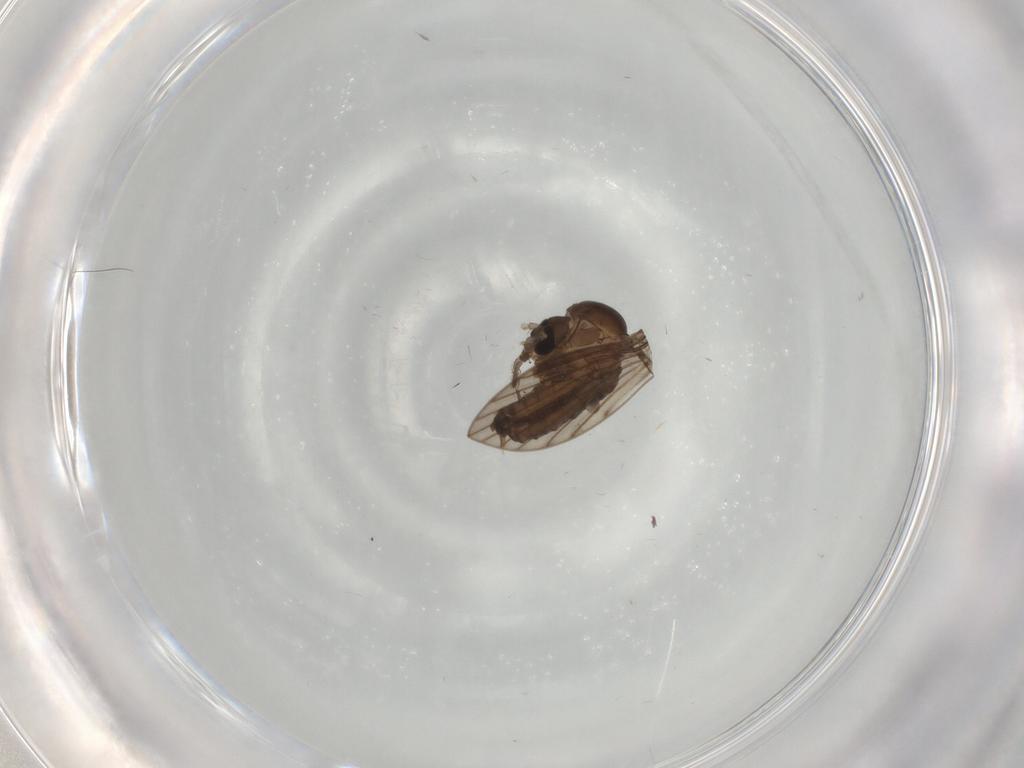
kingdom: Animalia
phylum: Arthropoda
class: Insecta
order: Diptera
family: Psychodidae
